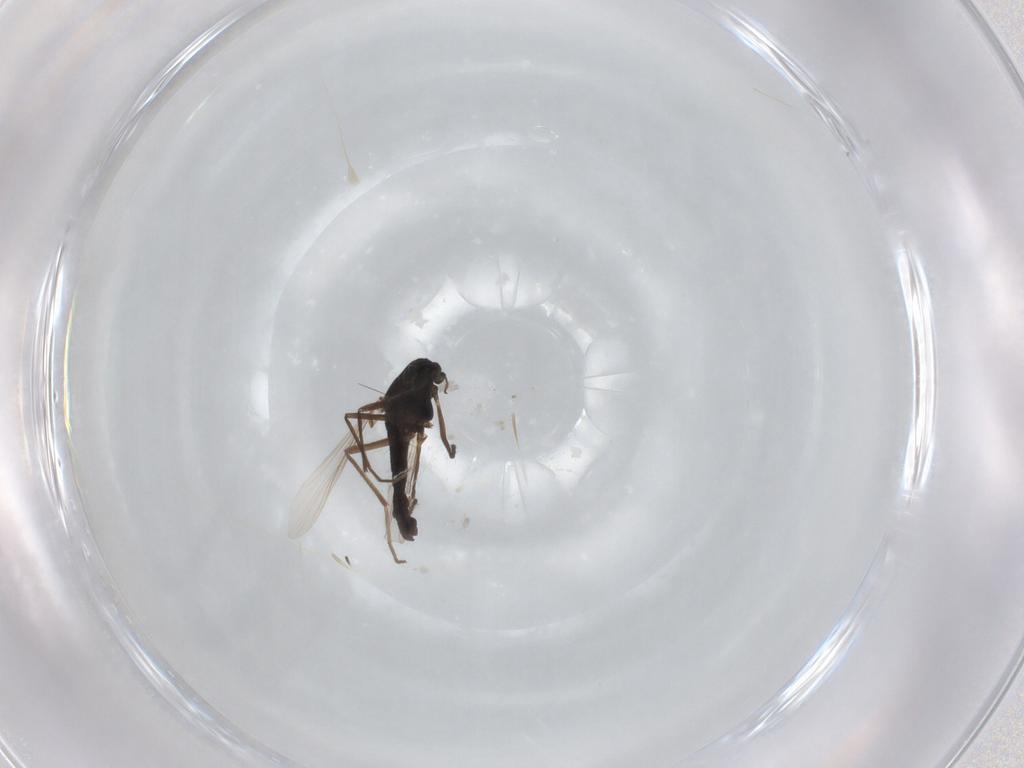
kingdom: Animalia
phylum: Arthropoda
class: Insecta
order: Diptera
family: Chironomidae
